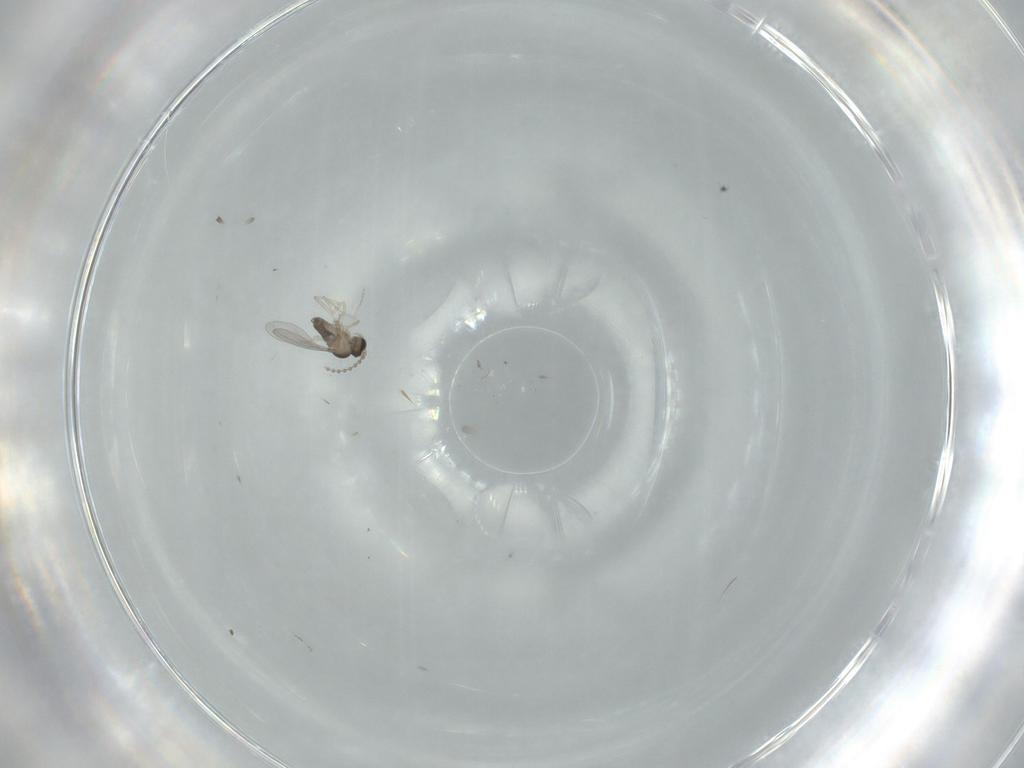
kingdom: Animalia
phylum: Arthropoda
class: Insecta
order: Diptera
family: Cecidomyiidae
